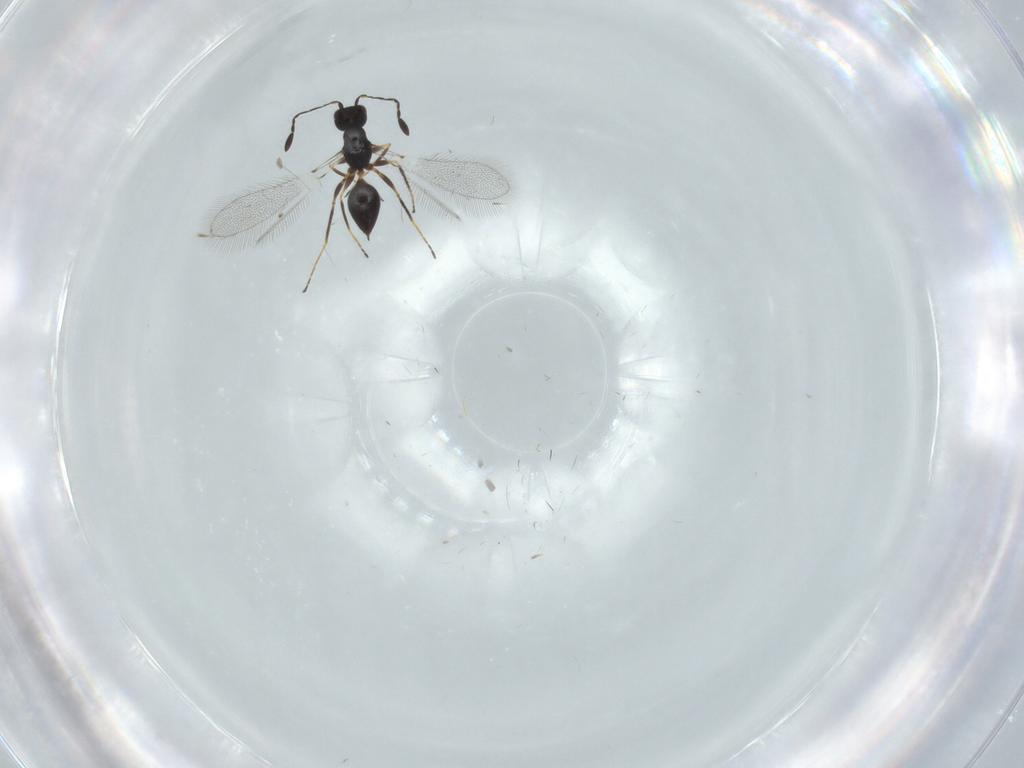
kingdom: Animalia
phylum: Arthropoda
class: Insecta
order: Hymenoptera
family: Mymaridae
